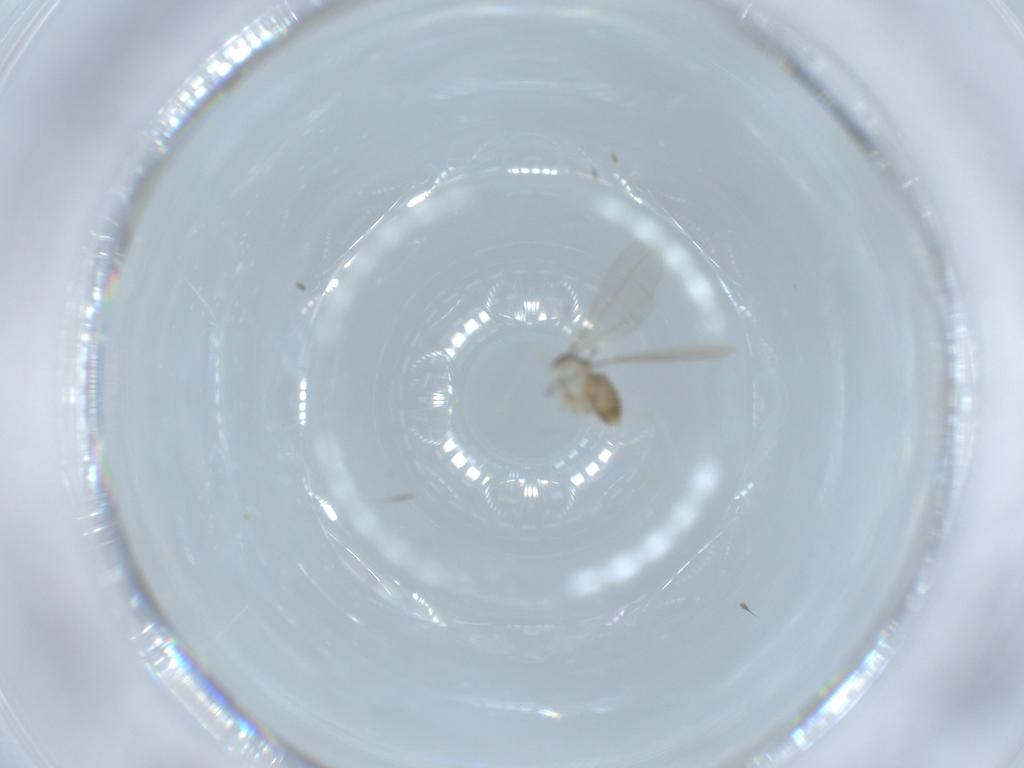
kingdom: Animalia
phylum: Arthropoda
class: Insecta
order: Diptera
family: Cecidomyiidae
